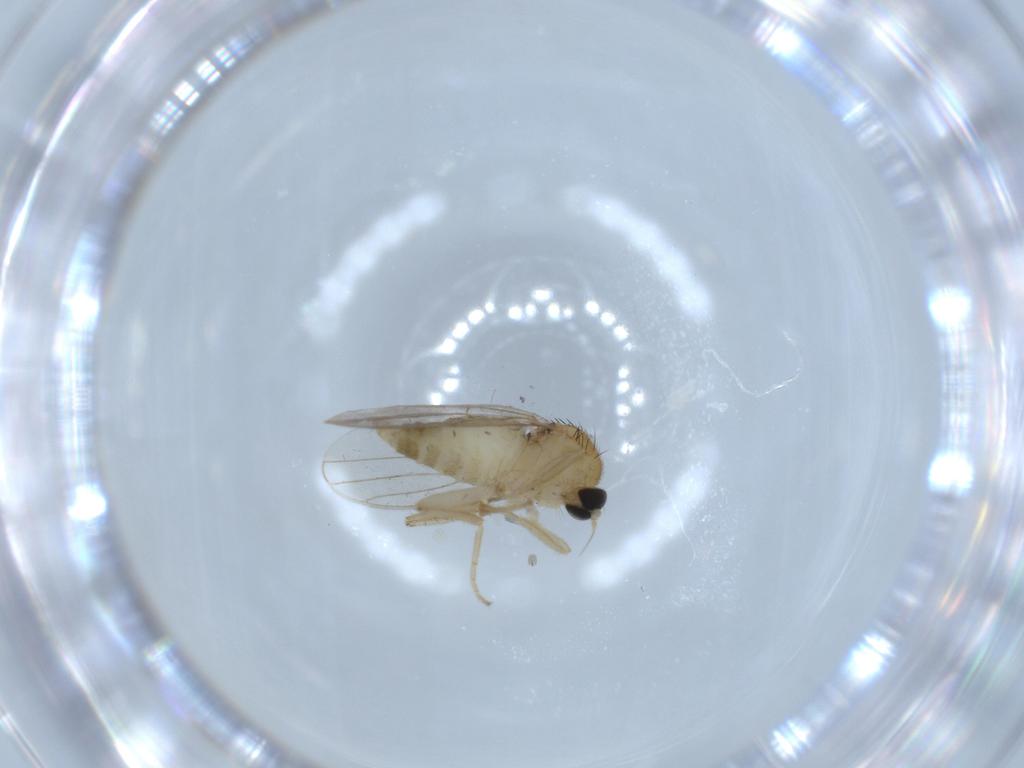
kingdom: Animalia
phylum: Arthropoda
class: Insecta
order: Diptera
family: Hybotidae
